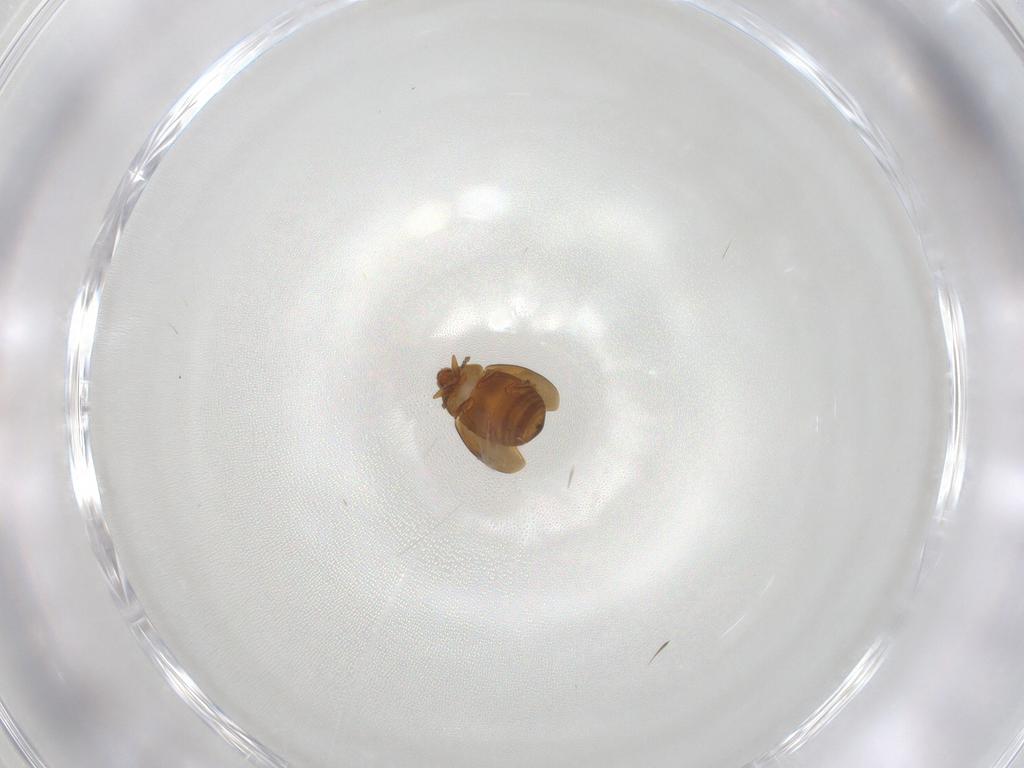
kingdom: Animalia
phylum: Arthropoda
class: Insecta
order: Coleoptera
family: Corylophidae
